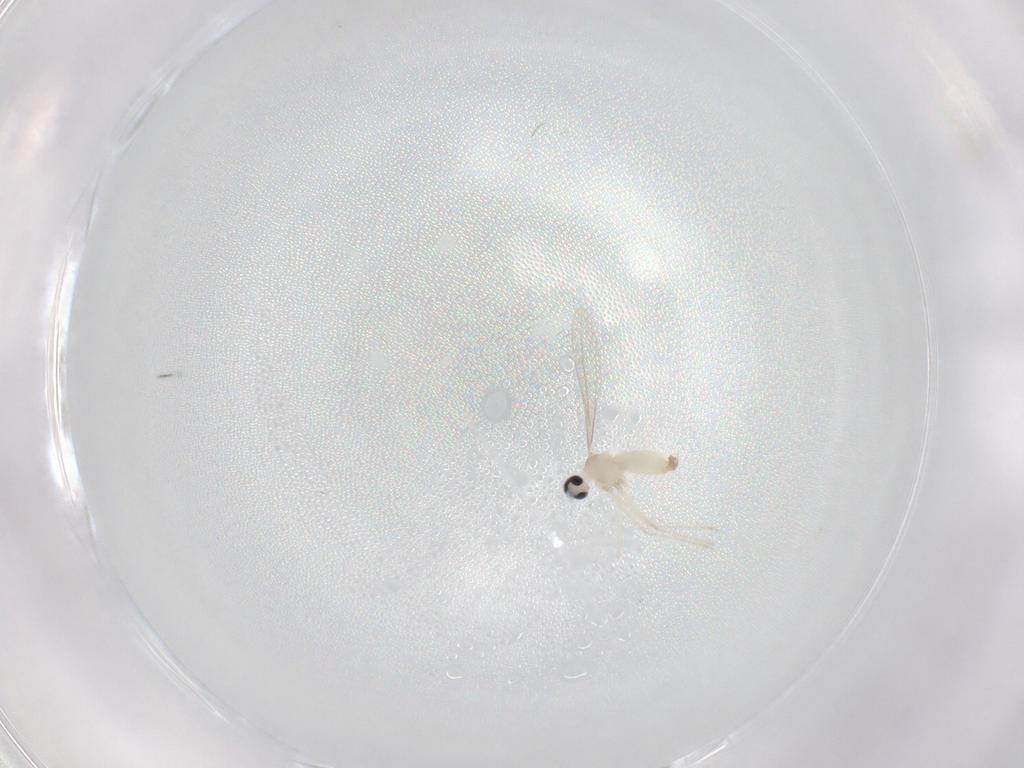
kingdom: Animalia
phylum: Arthropoda
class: Insecta
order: Diptera
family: Cecidomyiidae
